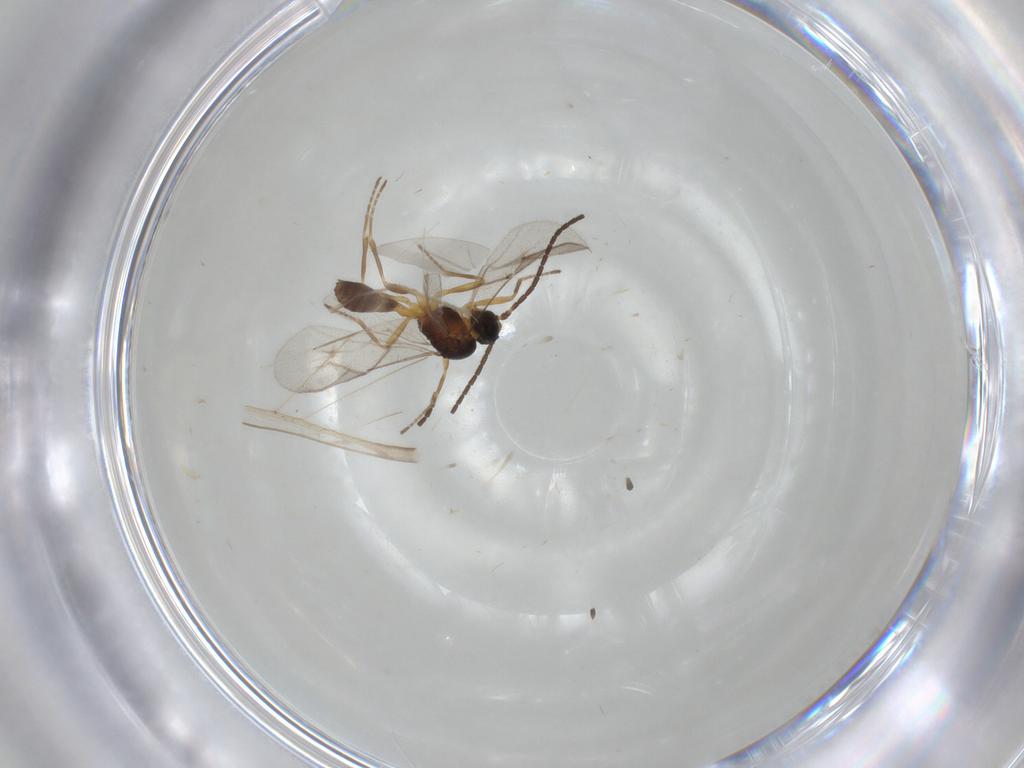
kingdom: Animalia
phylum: Arthropoda
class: Insecta
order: Hymenoptera
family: Braconidae
